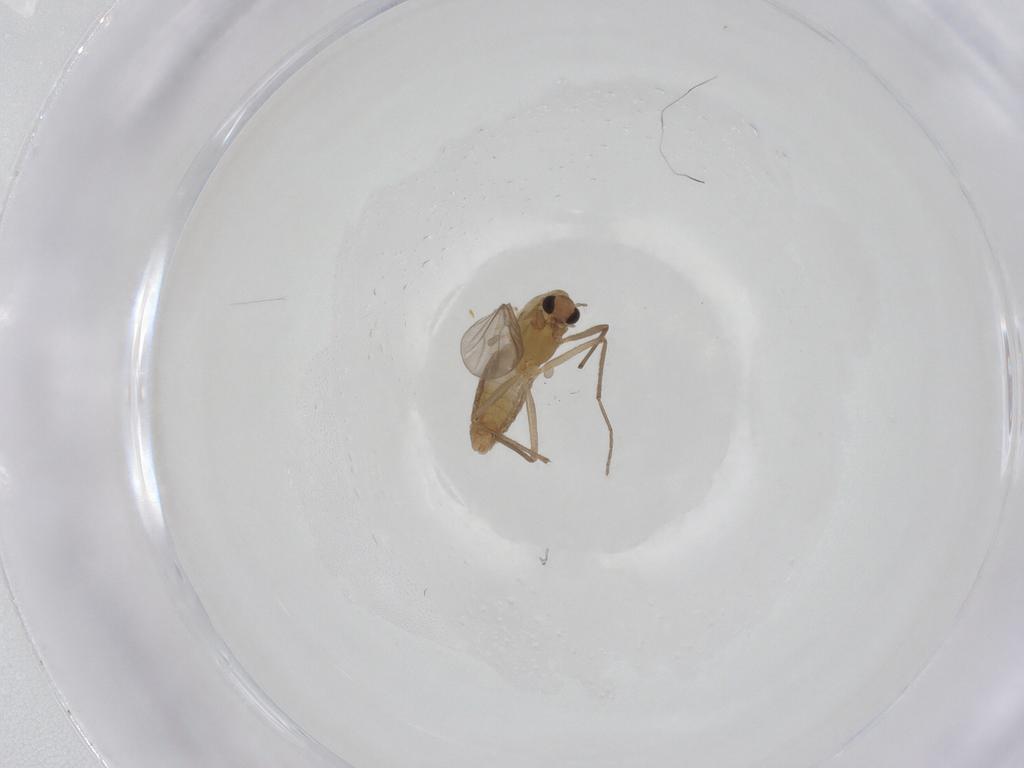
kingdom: Animalia
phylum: Arthropoda
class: Insecta
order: Diptera
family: Chironomidae
